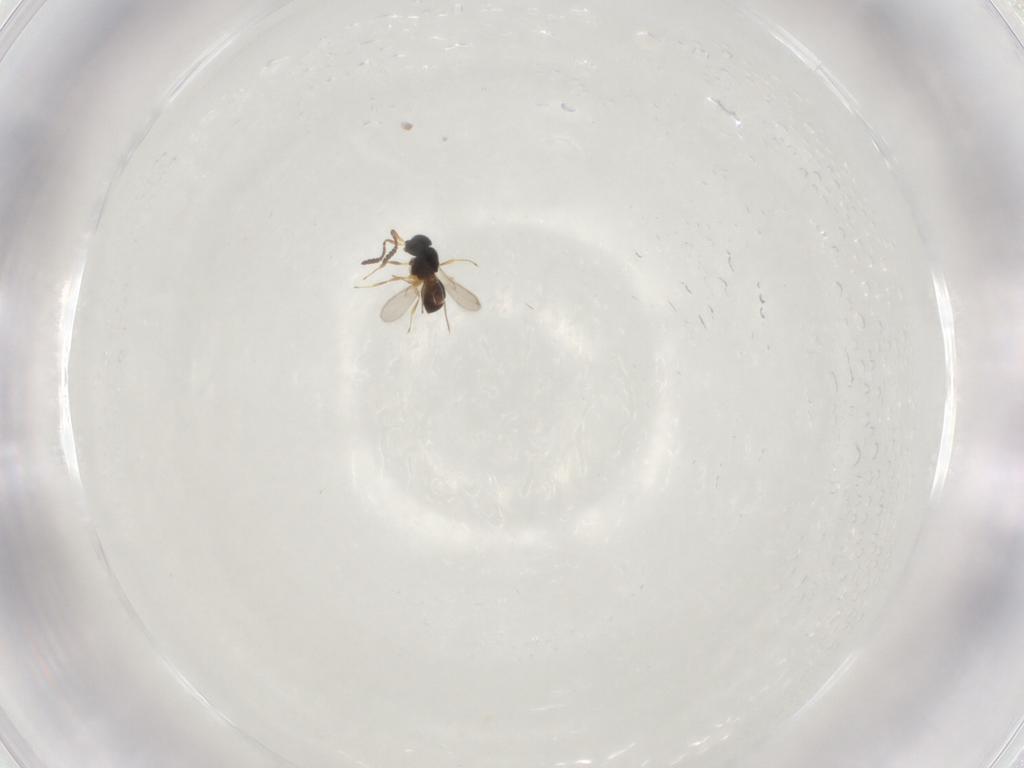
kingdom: Animalia
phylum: Arthropoda
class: Insecta
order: Hymenoptera
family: Scelionidae
